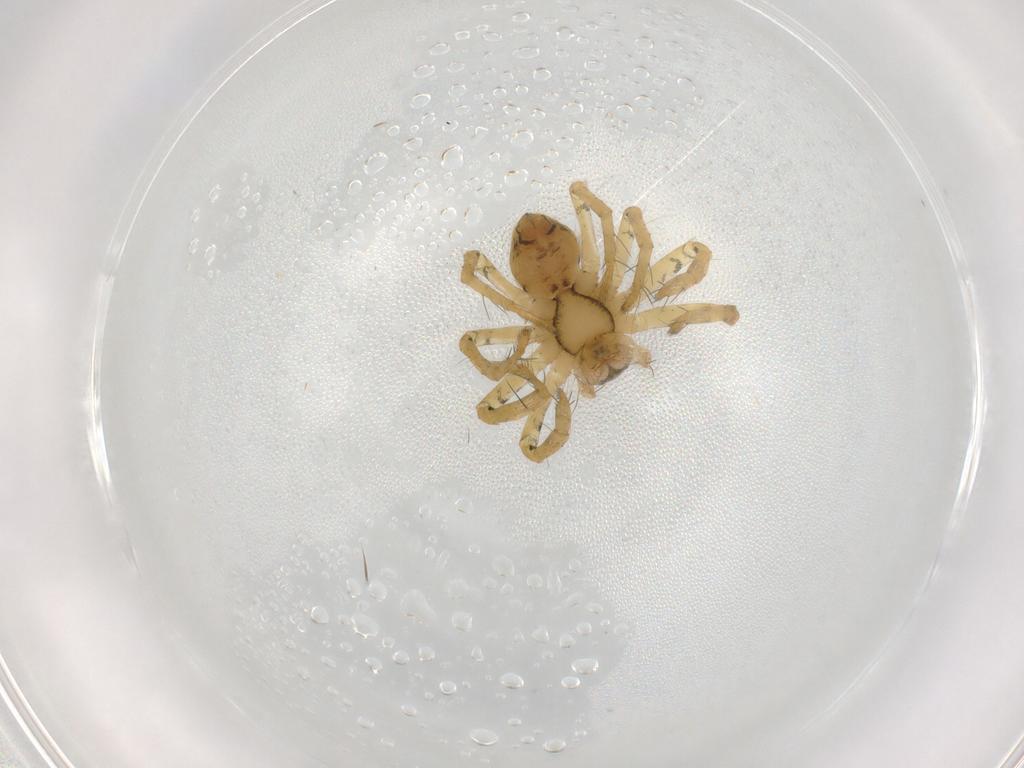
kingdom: Animalia
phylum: Arthropoda
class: Arachnida
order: Araneae
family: Pisauridae
